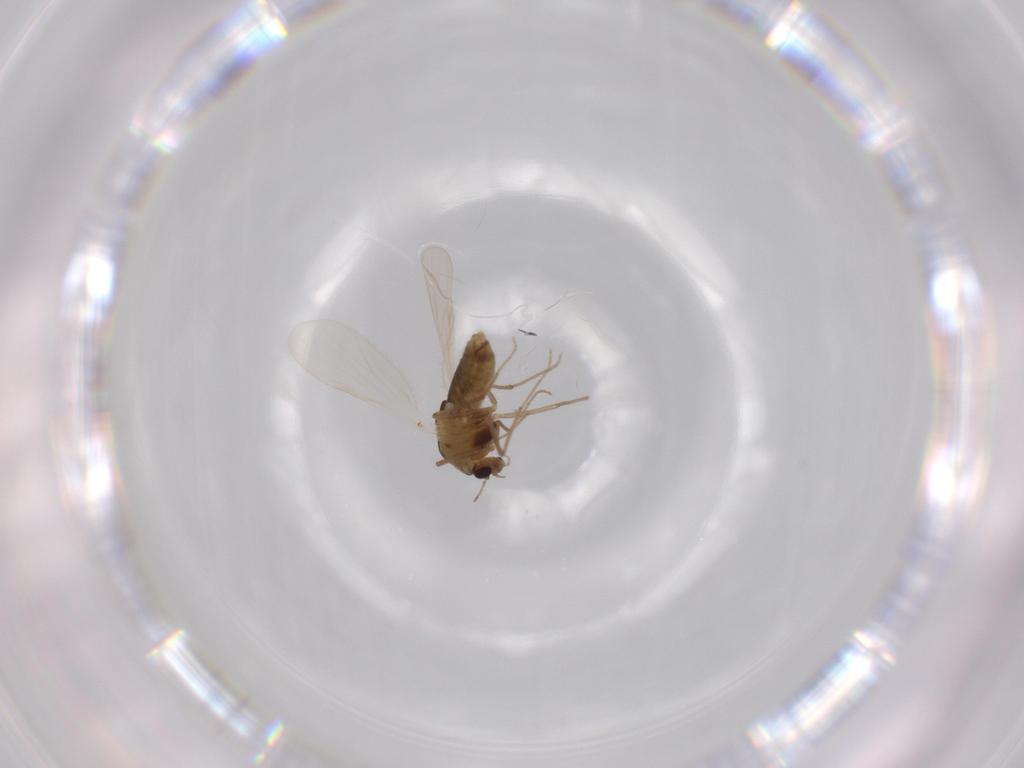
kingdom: Animalia
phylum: Arthropoda
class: Insecta
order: Diptera
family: Chironomidae
